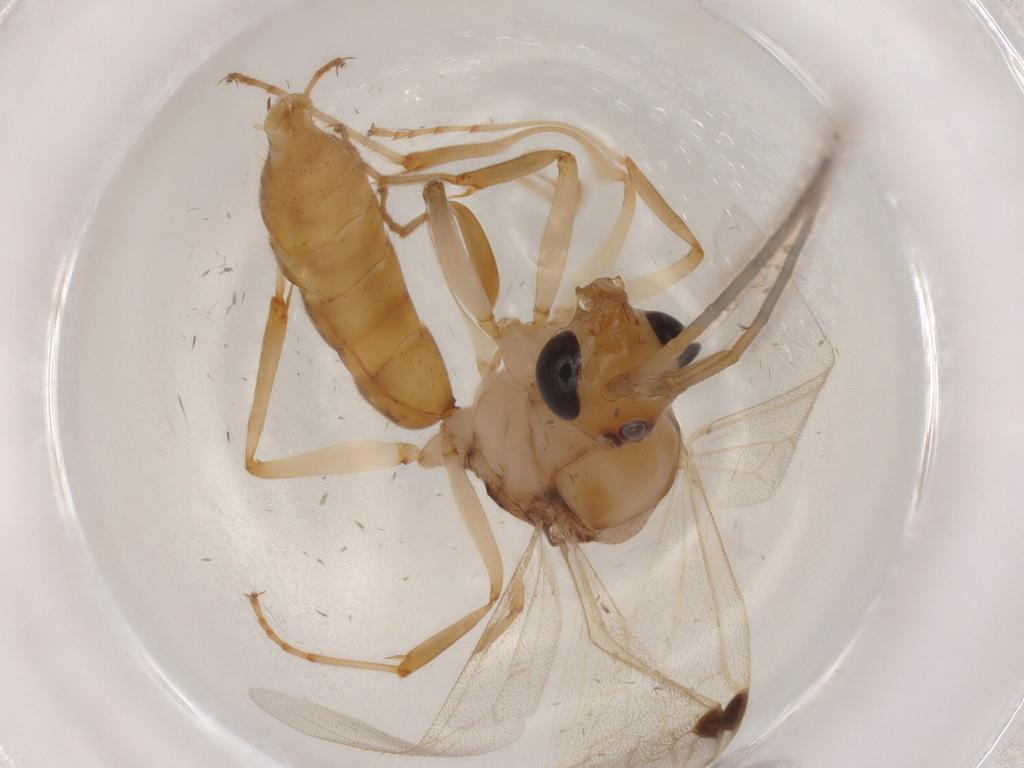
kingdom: Animalia
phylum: Arthropoda
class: Insecta
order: Hymenoptera
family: Formicidae
